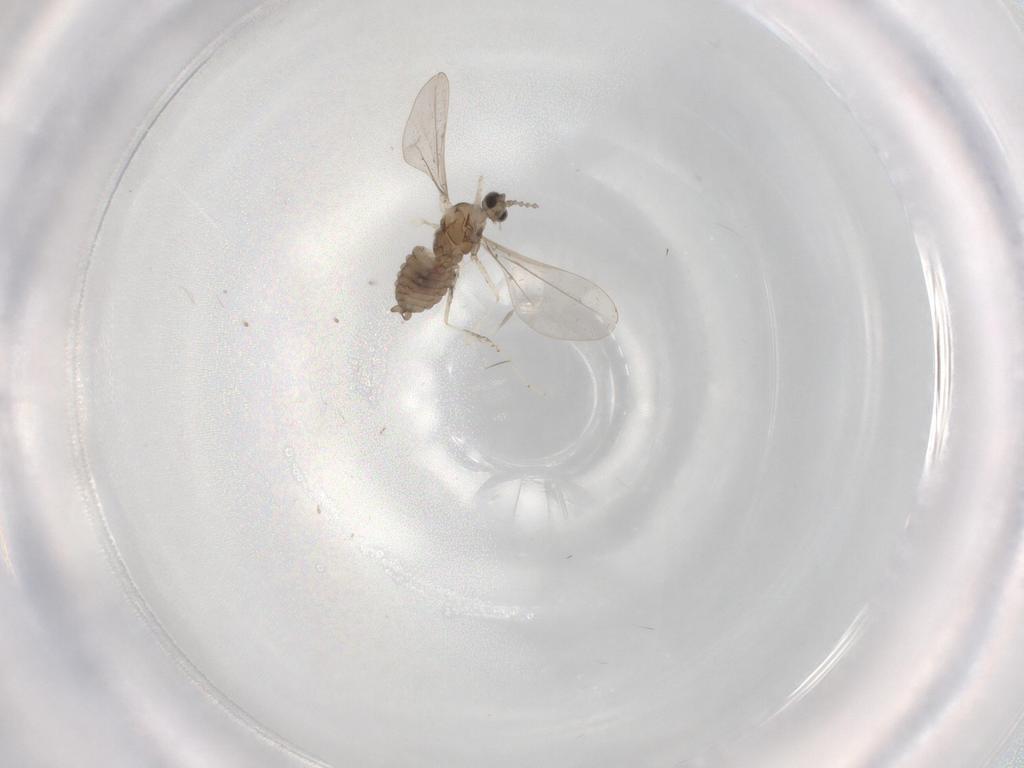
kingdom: Animalia
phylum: Arthropoda
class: Insecta
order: Diptera
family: Cecidomyiidae
